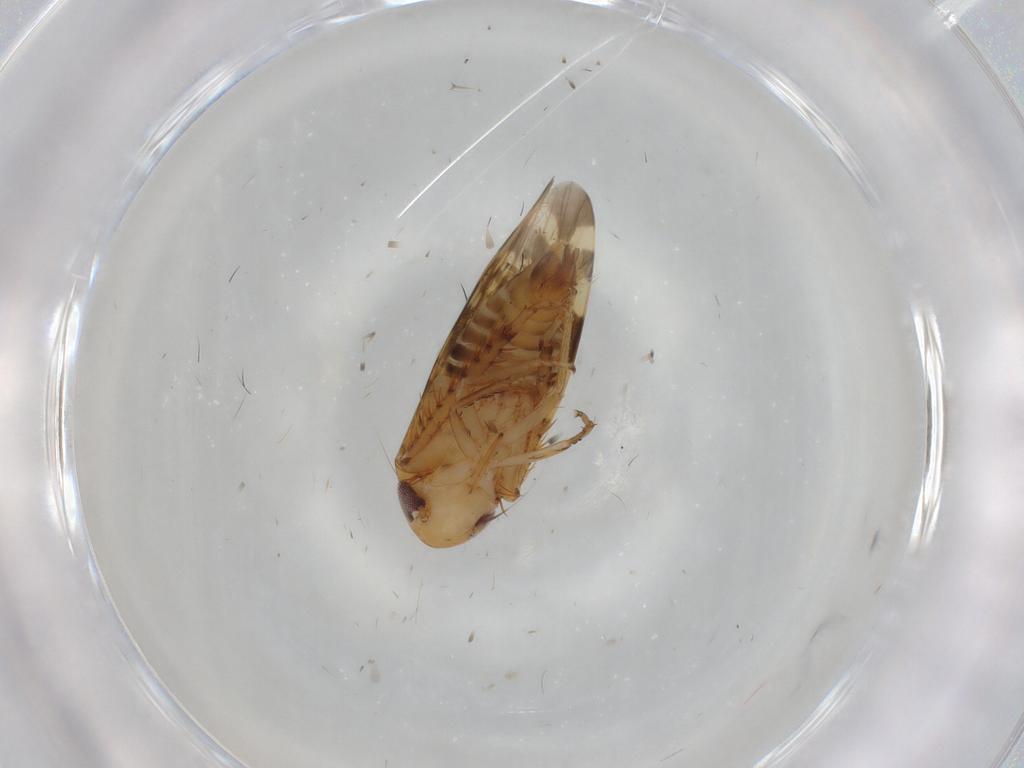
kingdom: Animalia
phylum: Arthropoda
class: Insecta
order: Hemiptera
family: Cicadellidae
